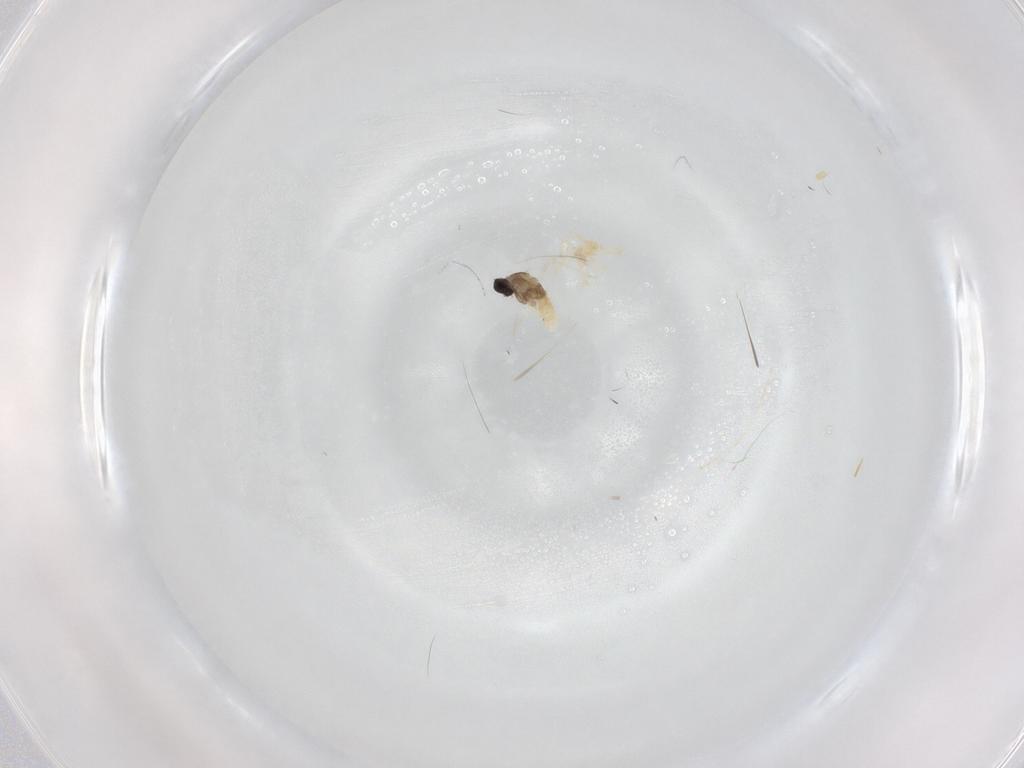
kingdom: Animalia
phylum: Arthropoda
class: Insecta
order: Diptera
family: Cecidomyiidae
